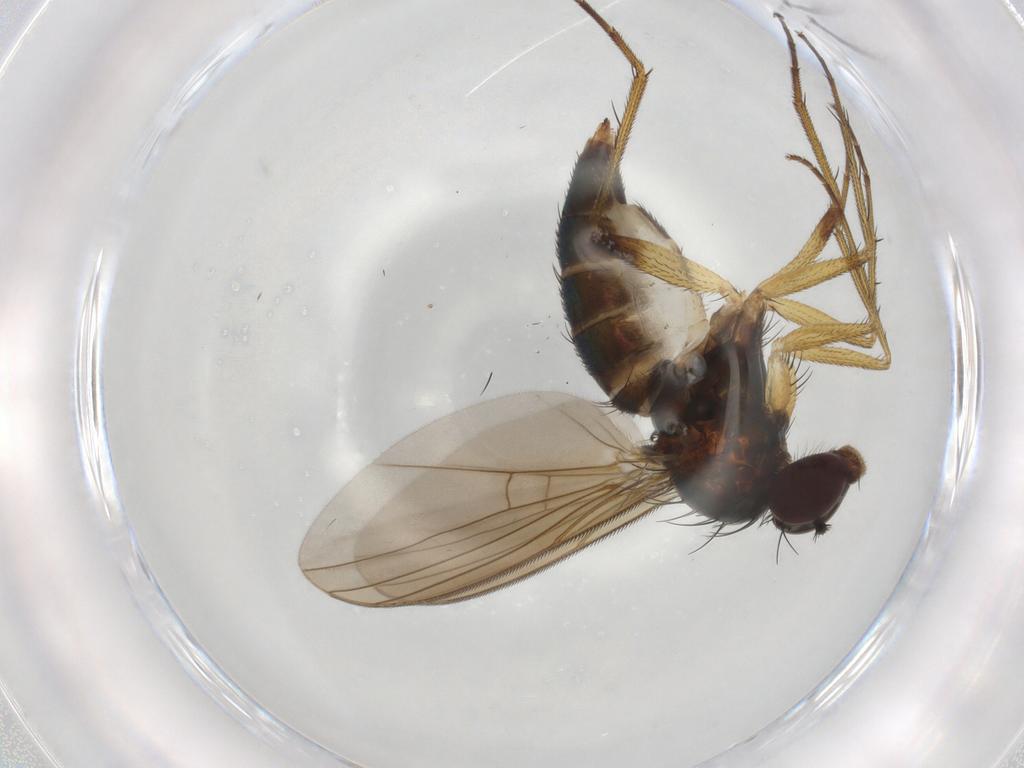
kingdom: Animalia
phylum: Arthropoda
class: Insecta
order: Diptera
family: Dolichopodidae
